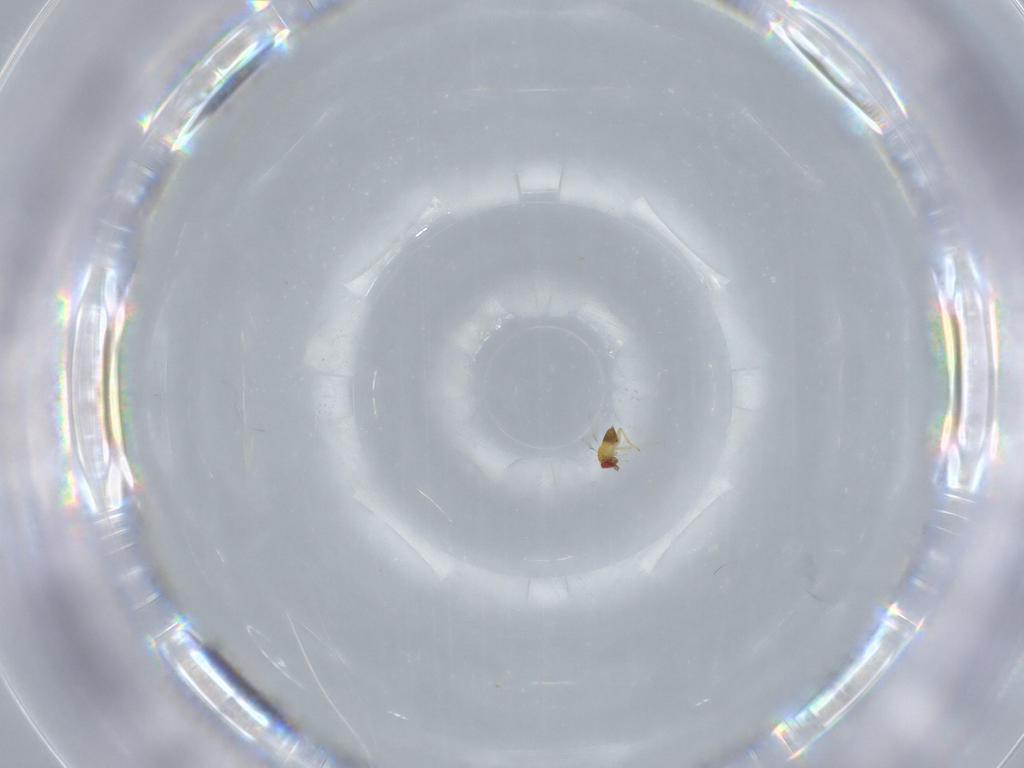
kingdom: Animalia
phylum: Arthropoda
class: Insecta
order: Hymenoptera
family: Trichogrammatidae
